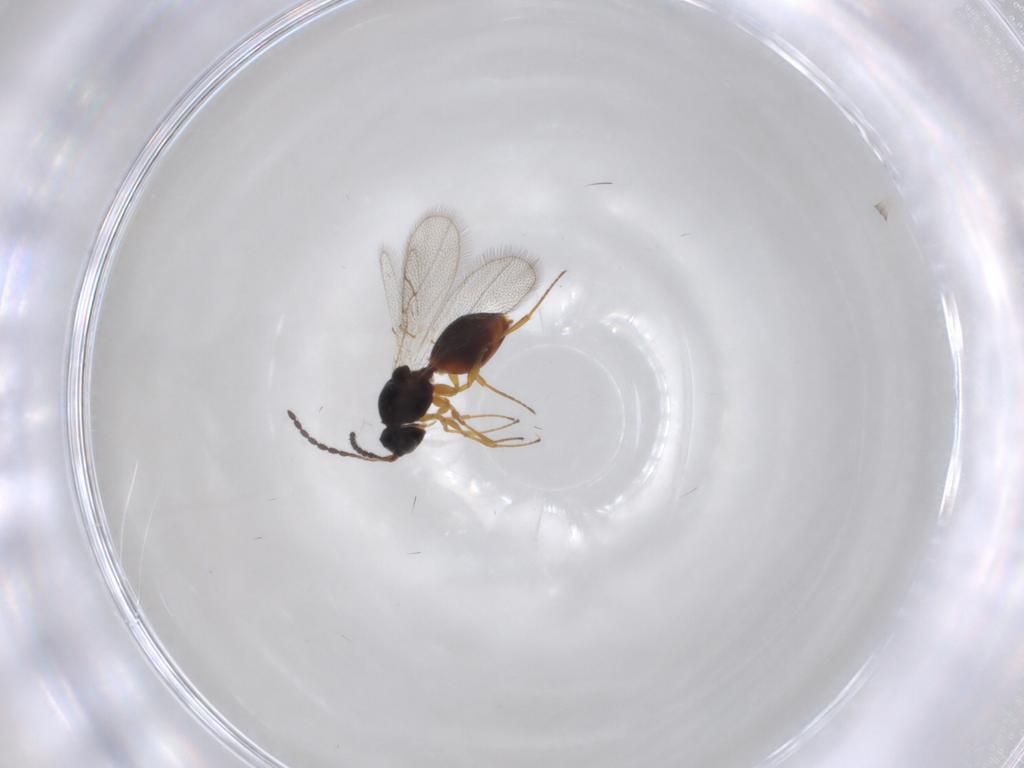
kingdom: Animalia
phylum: Arthropoda
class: Insecta
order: Hymenoptera
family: Figitidae
